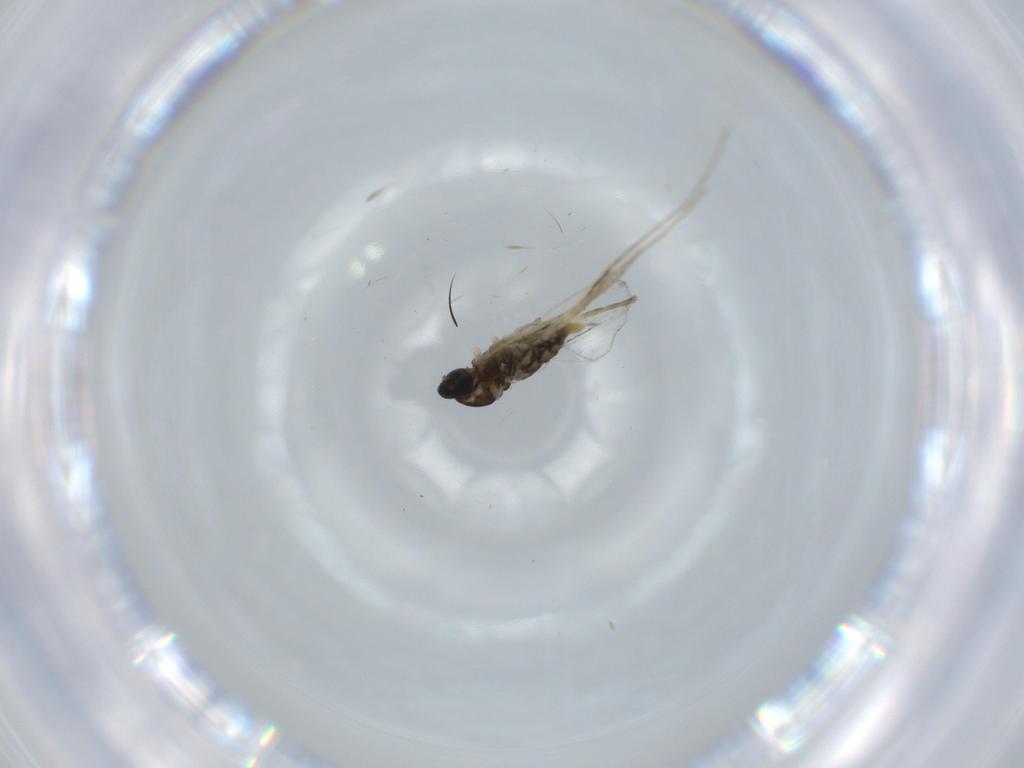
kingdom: Animalia
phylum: Arthropoda
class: Insecta
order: Diptera
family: Cecidomyiidae
